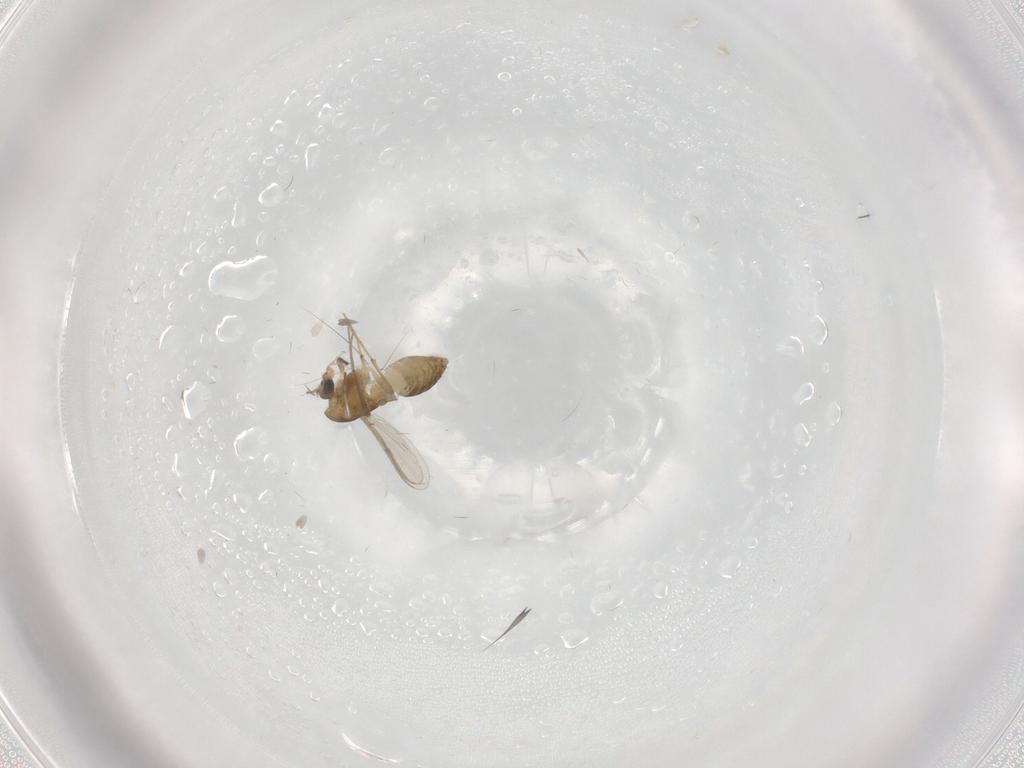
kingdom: Animalia
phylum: Arthropoda
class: Insecta
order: Diptera
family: Chironomidae
